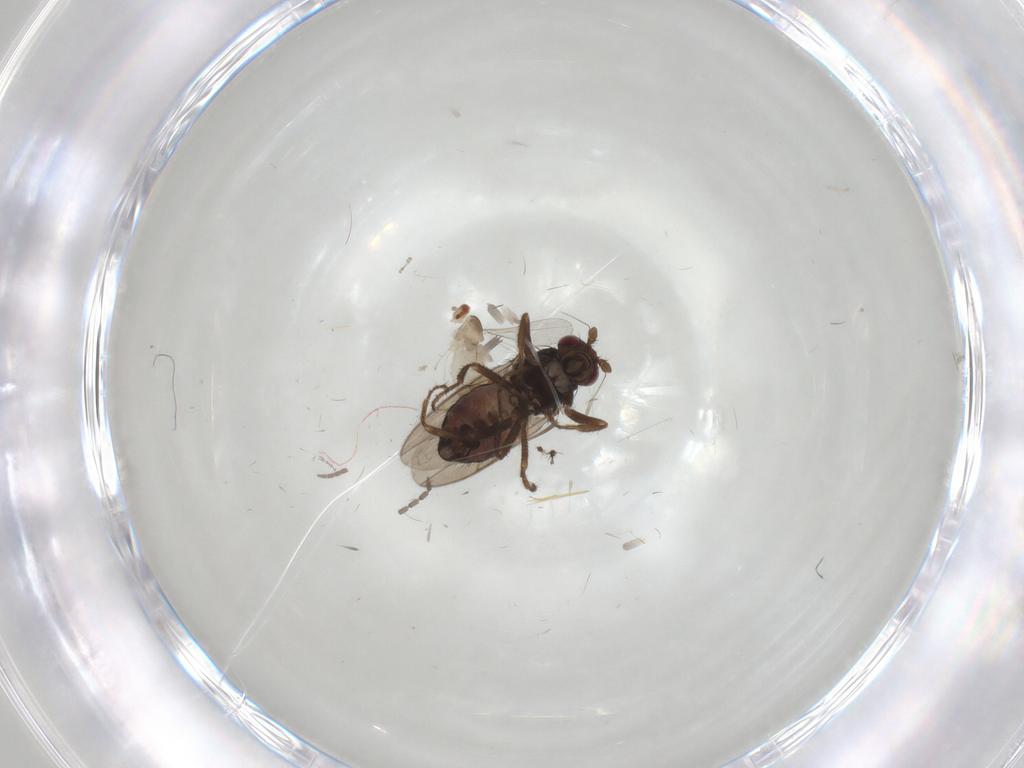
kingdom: Animalia
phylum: Arthropoda
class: Insecta
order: Diptera
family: Cecidomyiidae
